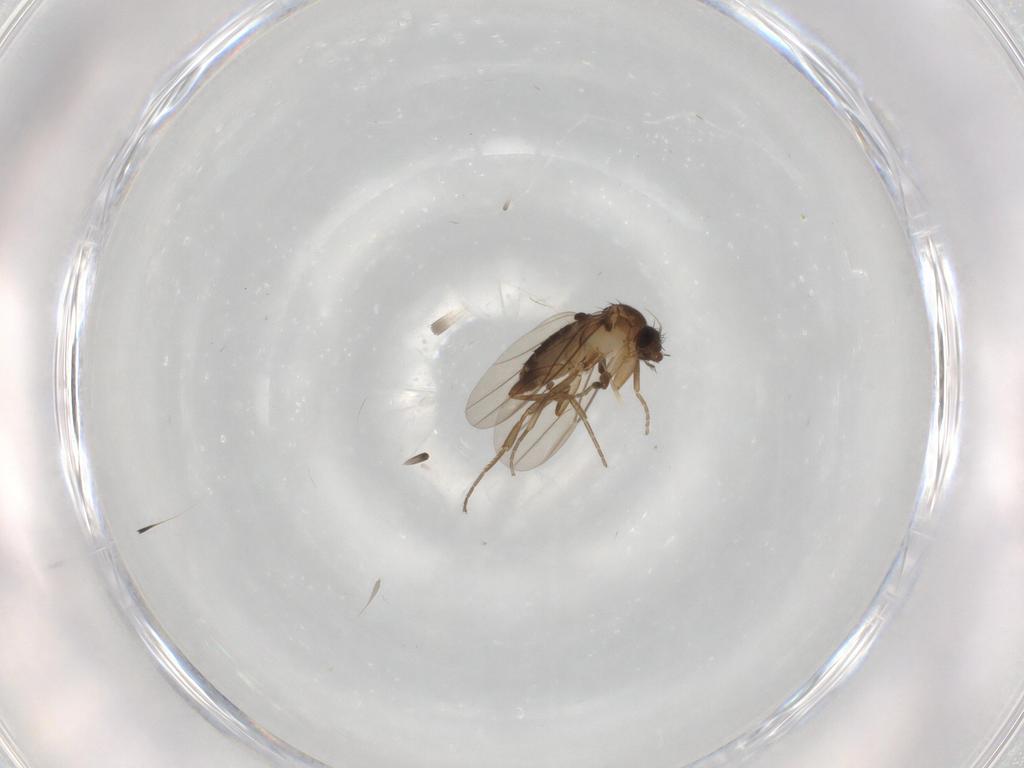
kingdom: Animalia
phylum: Arthropoda
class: Insecta
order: Diptera
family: Phoridae
